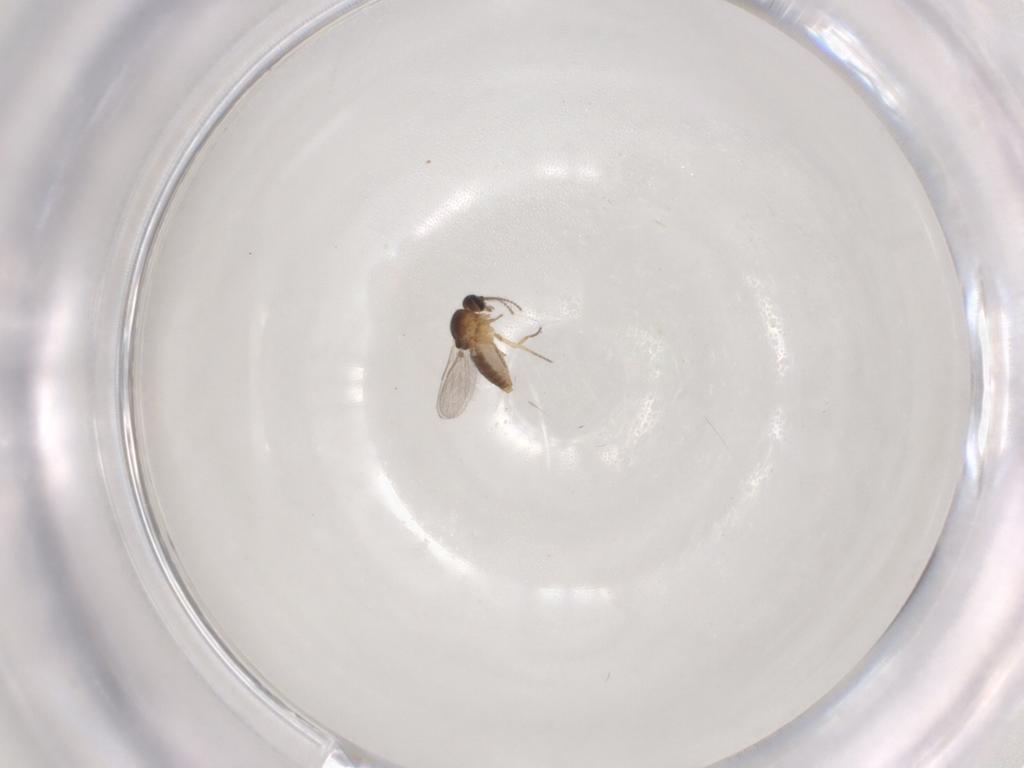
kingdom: Animalia
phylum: Arthropoda
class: Insecta
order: Diptera
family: Ceratopogonidae
